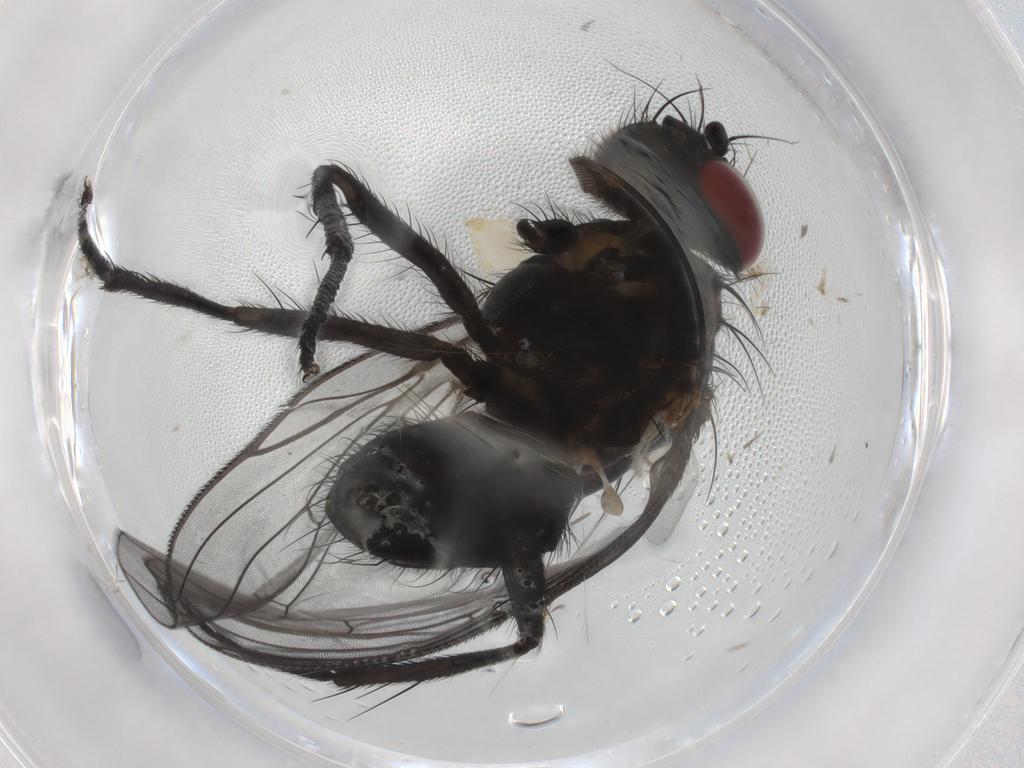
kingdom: Animalia
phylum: Arthropoda
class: Insecta
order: Diptera
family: Fannia
